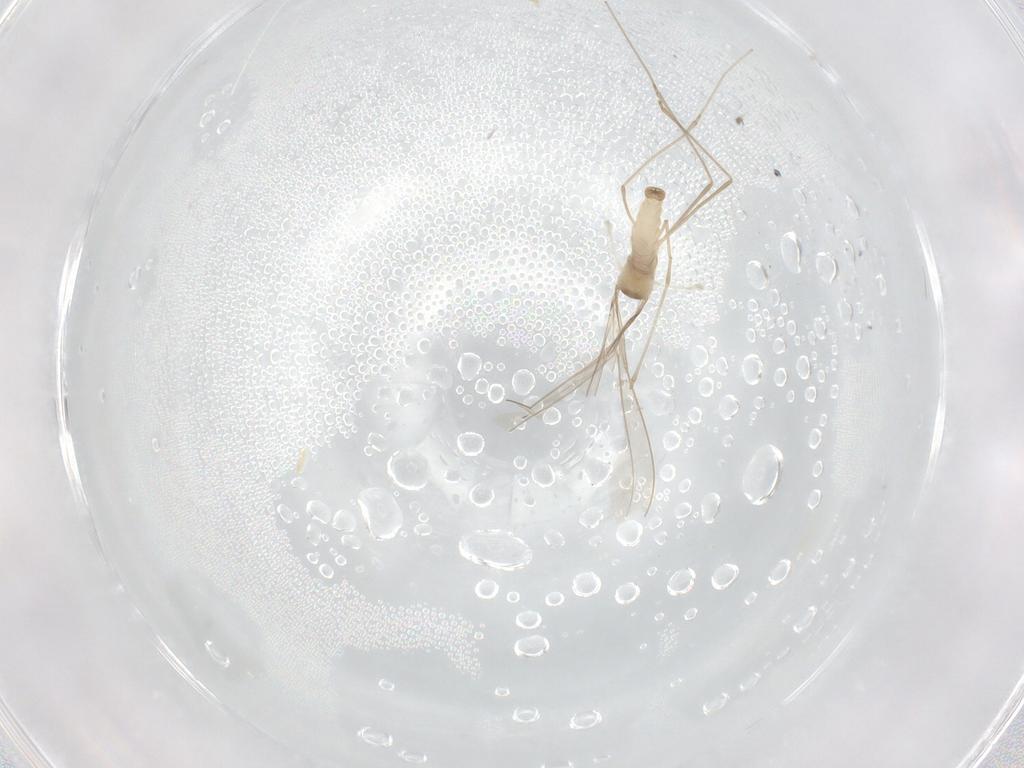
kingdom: Animalia
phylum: Arthropoda
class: Insecta
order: Diptera
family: Cecidomyiidae
